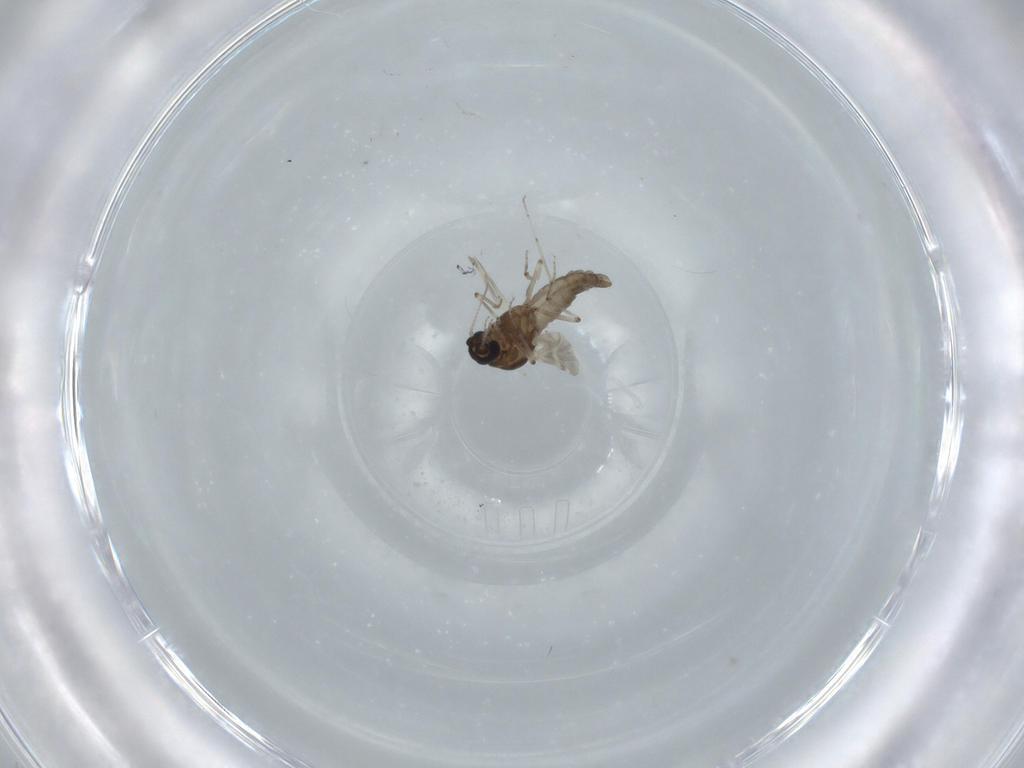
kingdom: Animalia
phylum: Arthropoda
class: Insecta
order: Diptera
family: Ceratopogonidae
